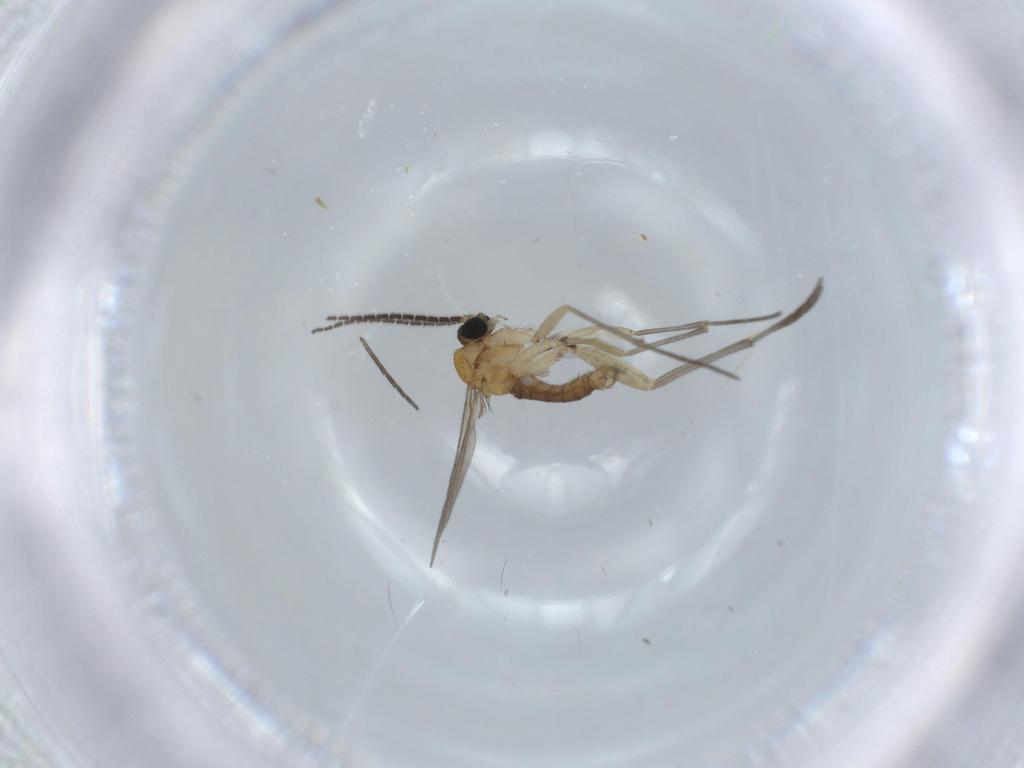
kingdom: Animalia
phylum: Arthropoda
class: Insecta
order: Diptera
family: Sciaridae
